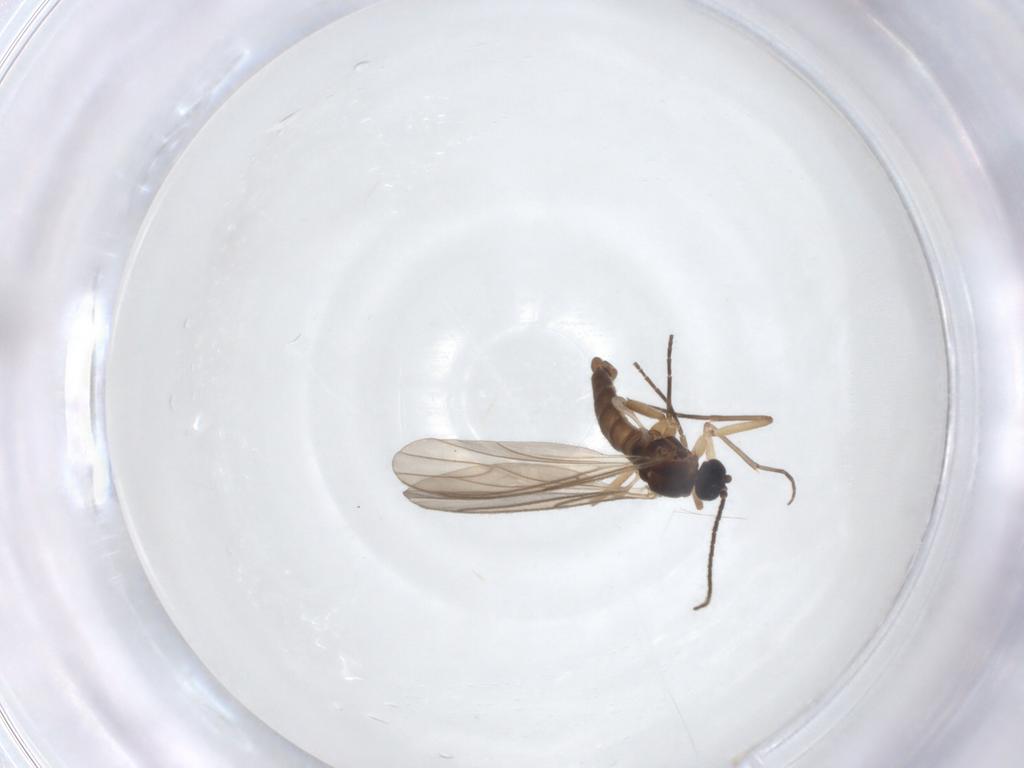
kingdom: Animalia
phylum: Arthropoda
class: Insecta
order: Diptera
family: Sciaridae
